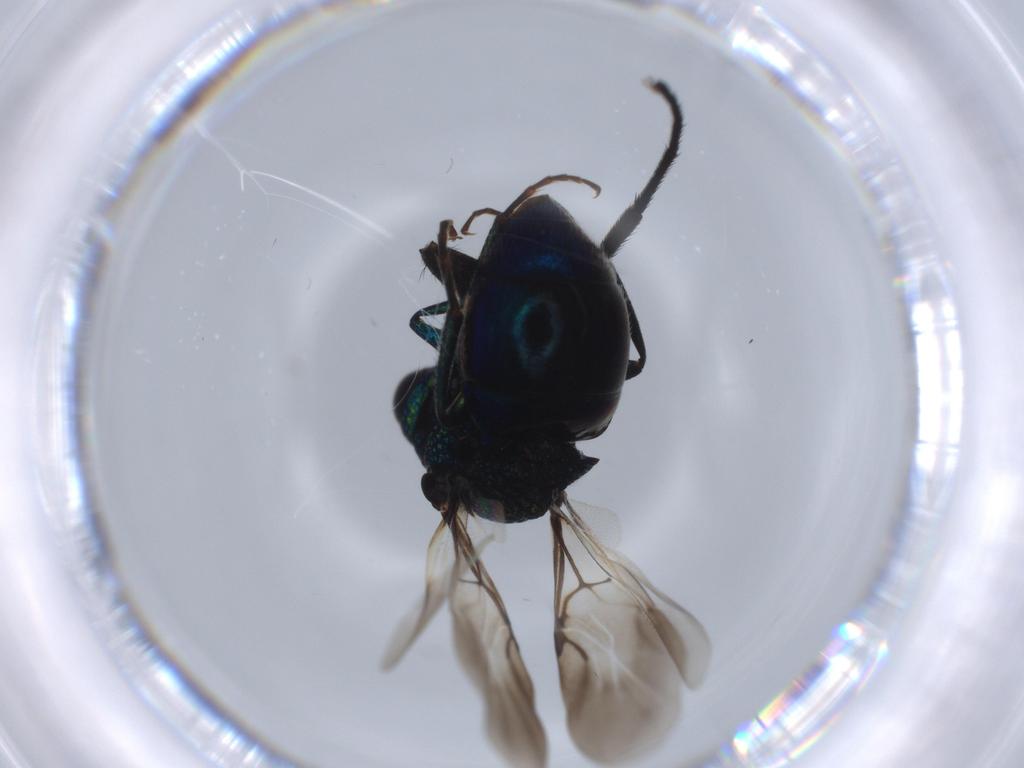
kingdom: Animalia
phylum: Arthropoda
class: Insecta
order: Hymenoptera
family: Chrysididae
